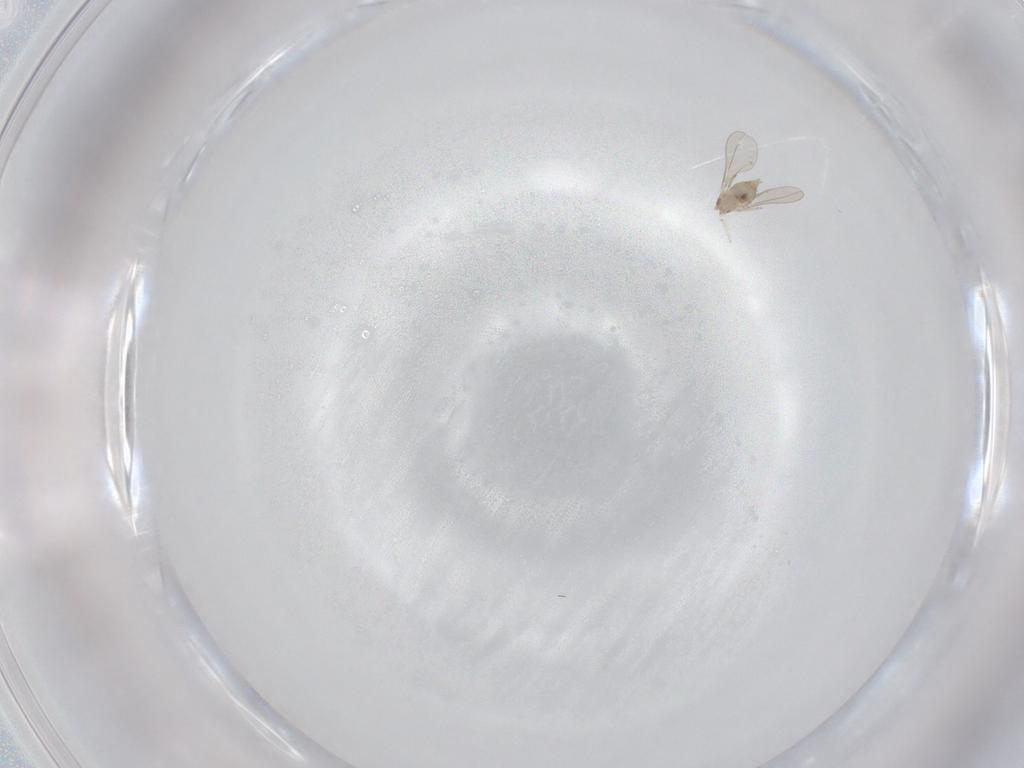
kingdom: Animalia
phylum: Arthropoda
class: Insecta
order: Diptera
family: Cecidomyiidae
